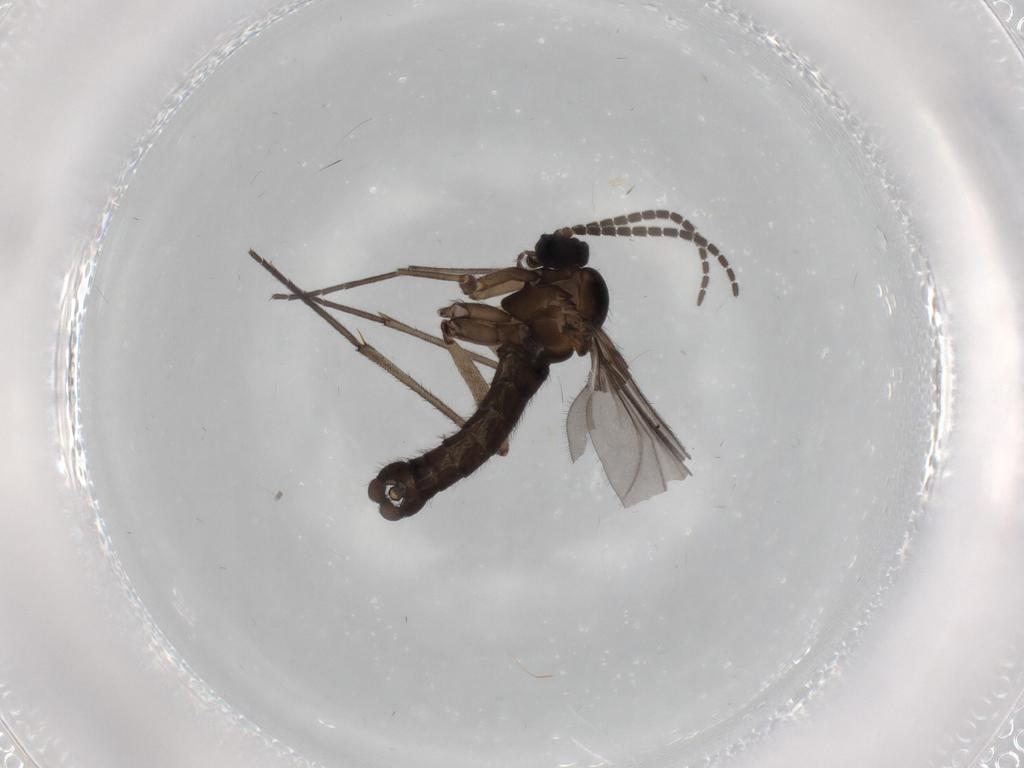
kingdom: Animalia
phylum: Arthropoda
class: Insecta
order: Diptera
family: Sciaridae
